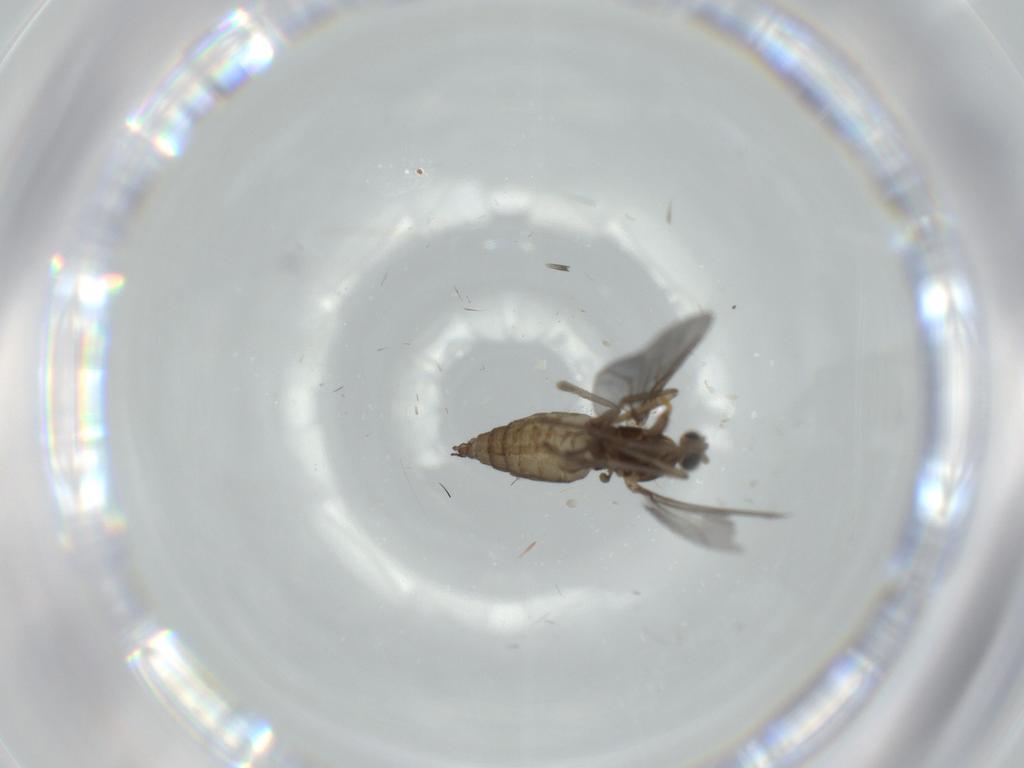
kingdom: Animalia
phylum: Arthropoda
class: Insecta
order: Diptera
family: Cecidomyiidae
